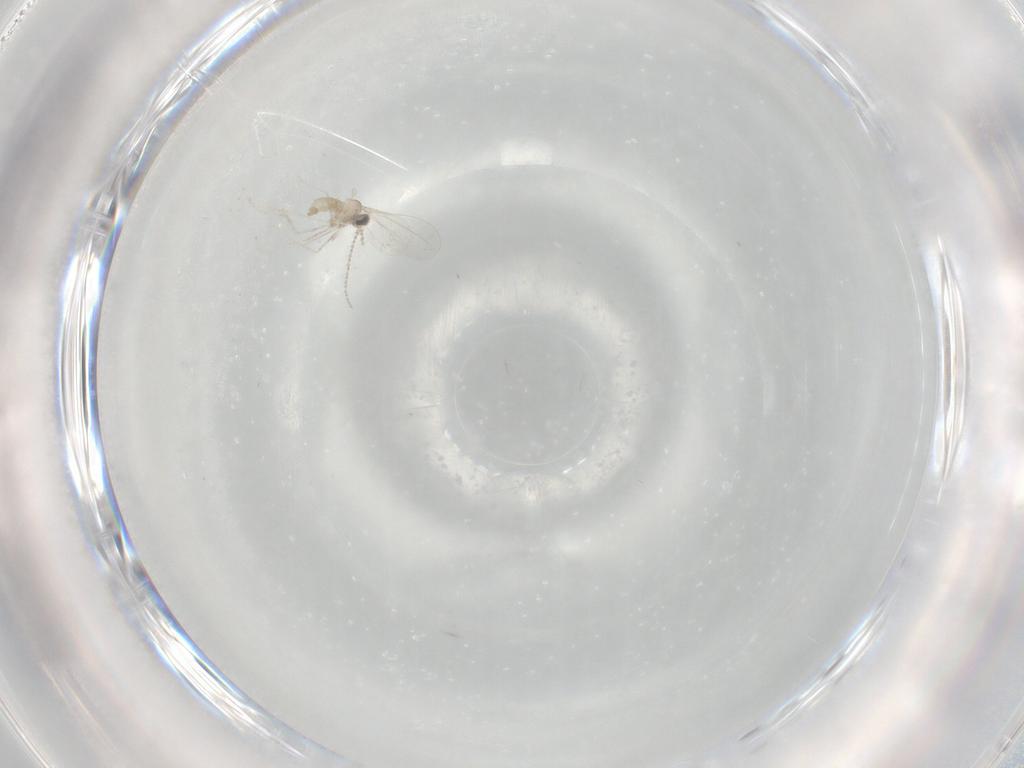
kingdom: Animalia
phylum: Arthropoda
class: Insecta
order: Diptera
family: Cecidomyiidae
